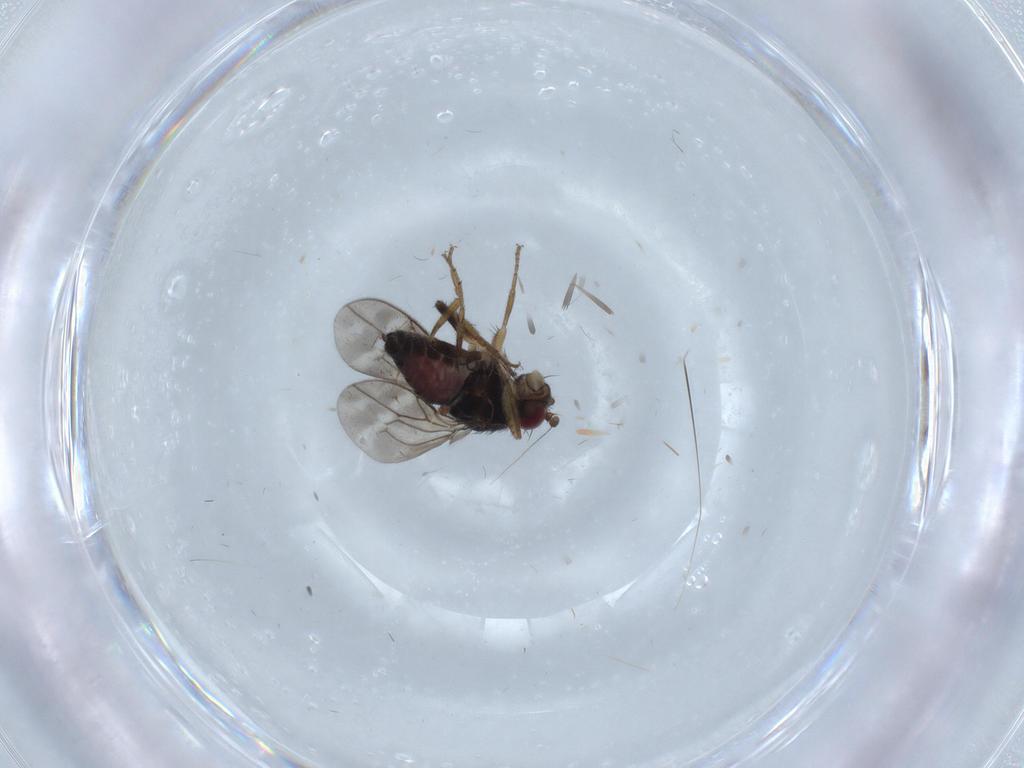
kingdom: Animalia
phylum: Arthropoda
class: Insecta
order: Diptera
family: Sphaeroceridae
